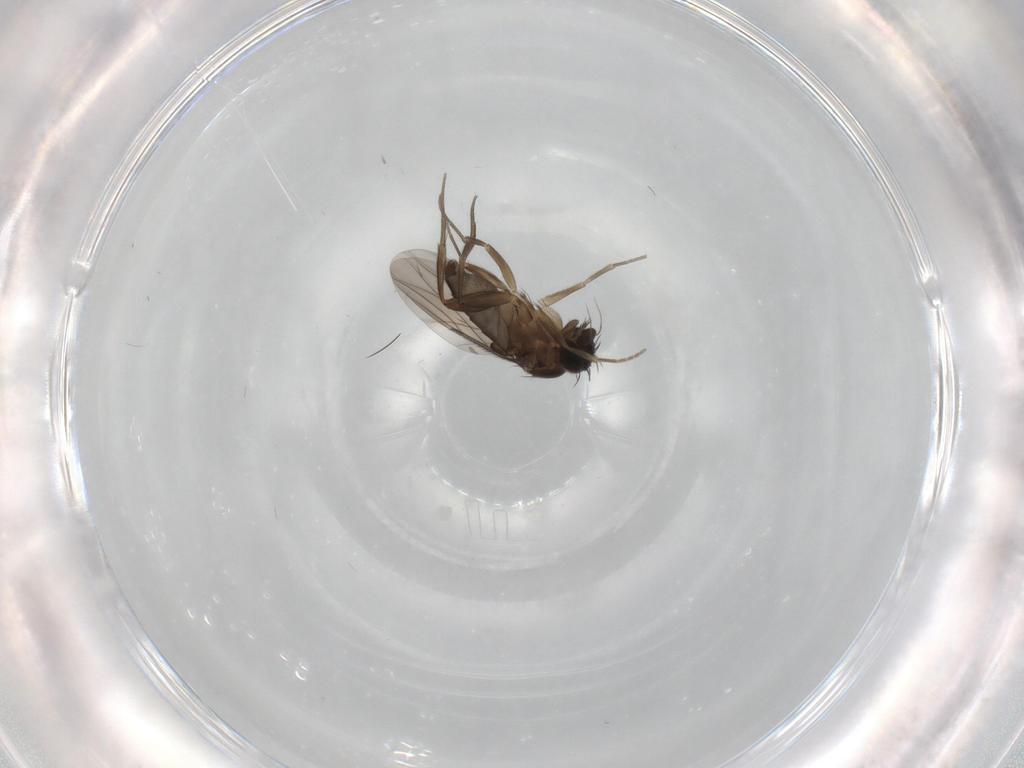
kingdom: Animalia
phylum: Arthropoda
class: Insecta
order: Diptera
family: Phoridae
